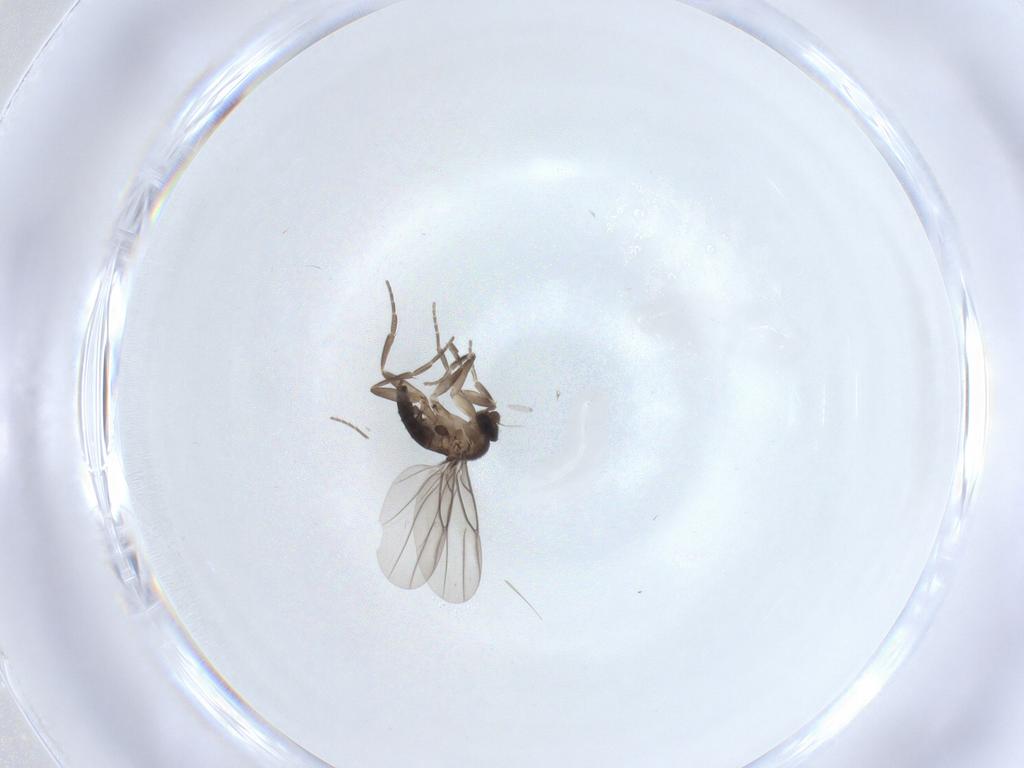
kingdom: Animalia
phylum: Arthropoda
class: Insecta
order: Diptera
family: Phoridae
